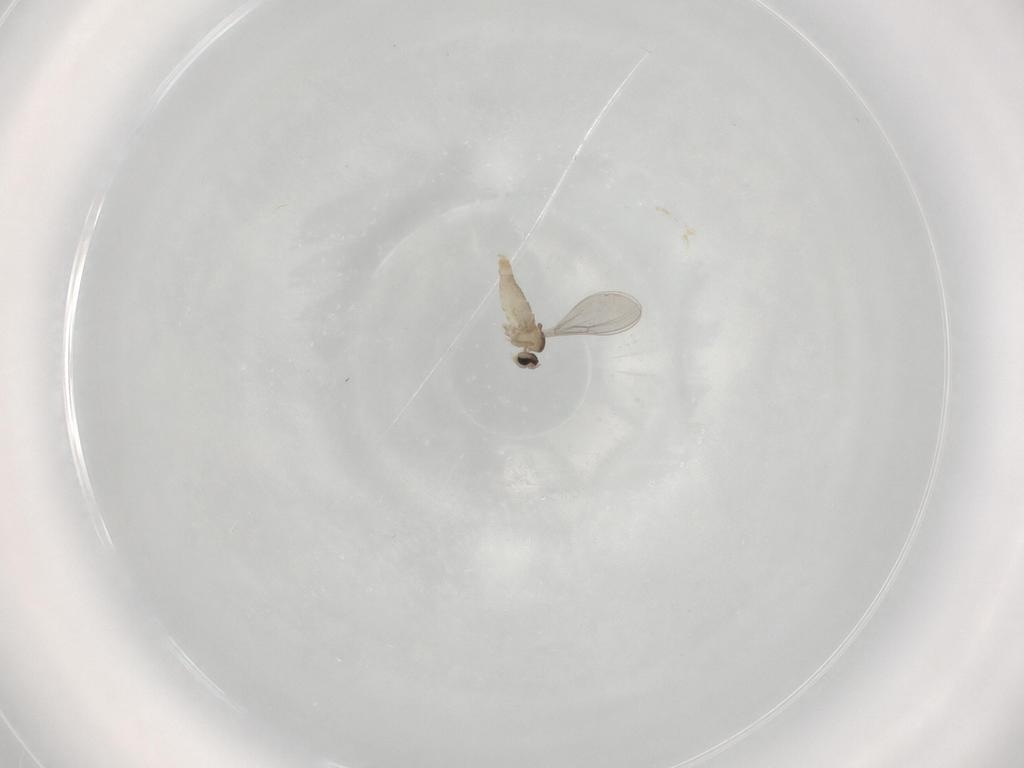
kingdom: Animalia
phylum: Arthropoda
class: Insecta
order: Diptera
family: Cecidomyiidae
